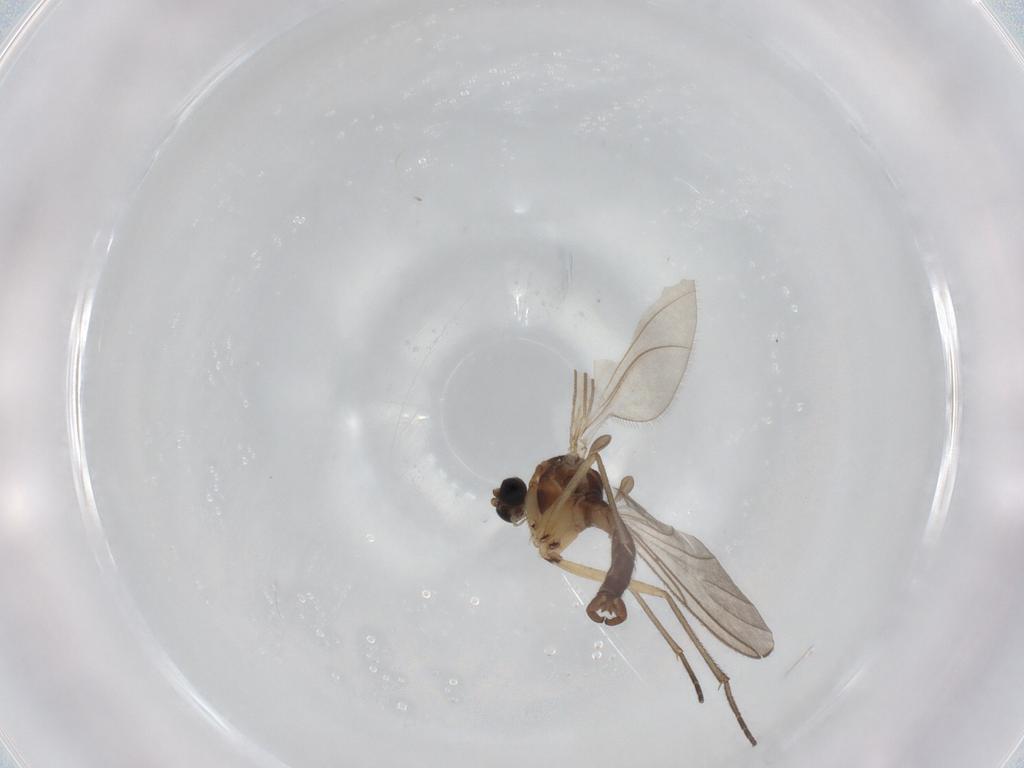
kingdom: Animalia
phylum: Arthropoda
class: Insecta
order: Diptera
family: Sciaridae
